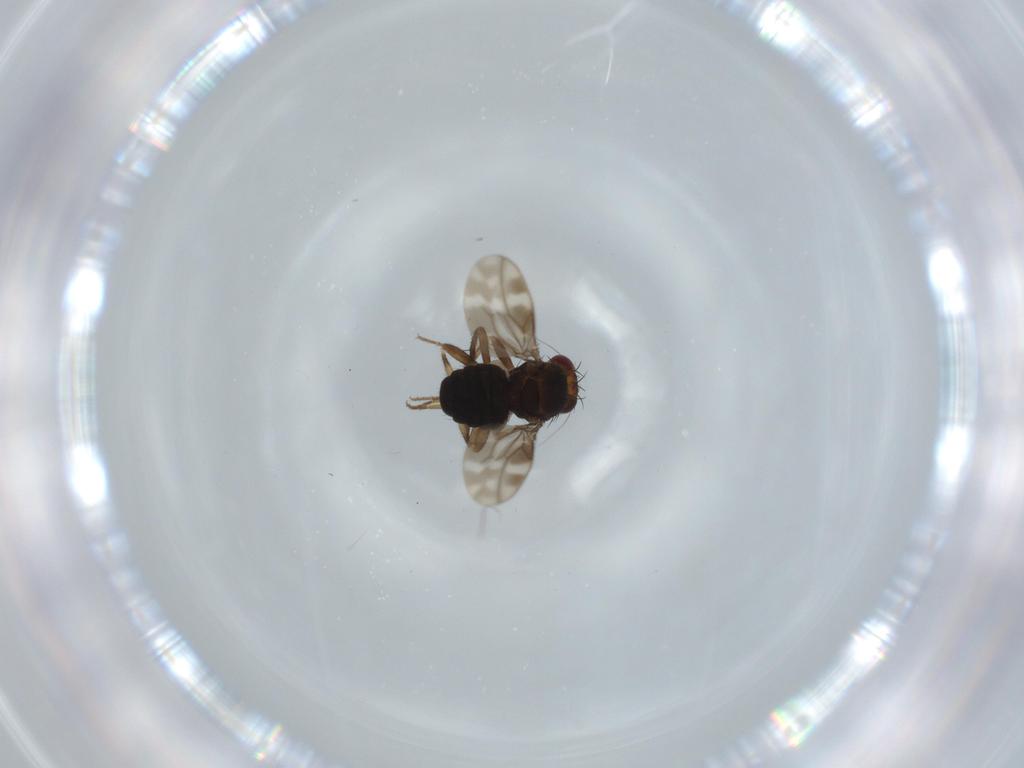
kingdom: Animalia
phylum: Arthropoda
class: Insecta
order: Diptera
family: Sphaeroceridae
